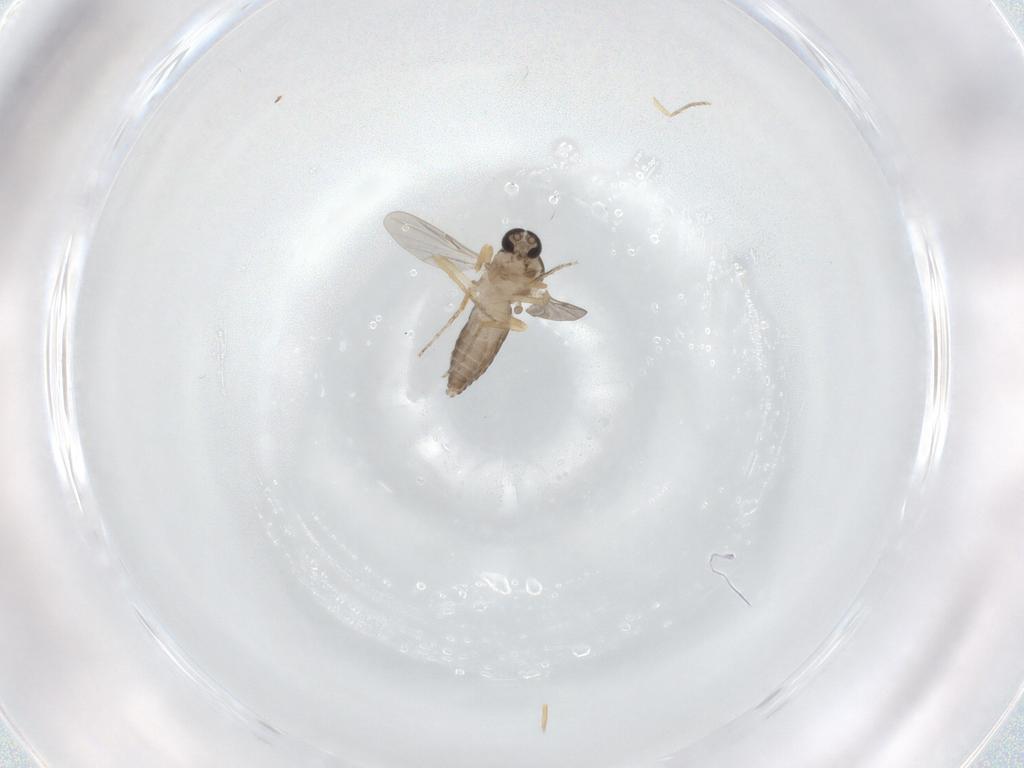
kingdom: Animalia
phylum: Arthropoda
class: Insecta
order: Diptera
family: Ceratopogonidae
